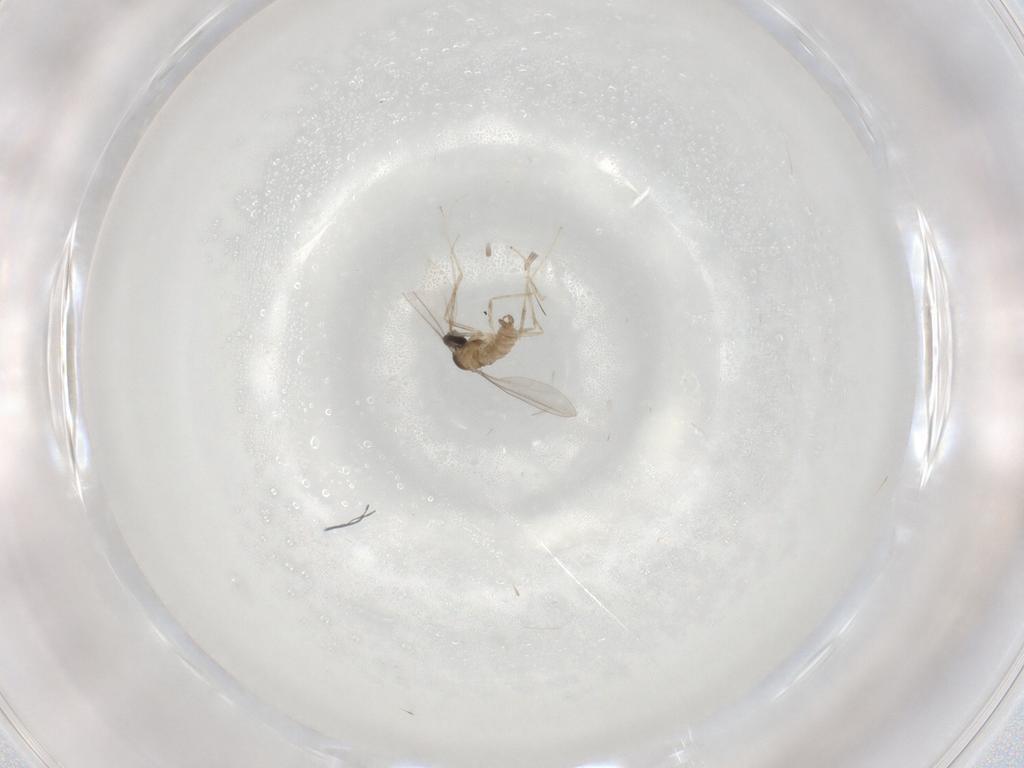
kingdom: Animalia
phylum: Arthropoda
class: Insecta
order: Diptera
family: Cecidomyiidae
